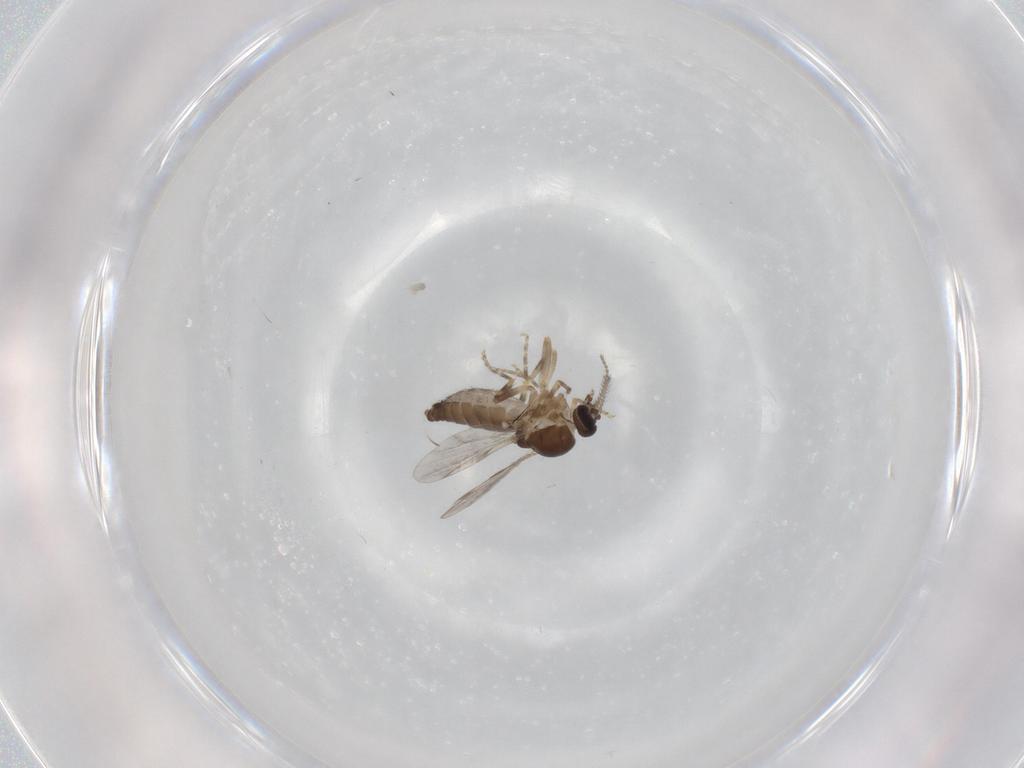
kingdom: Animalia
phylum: Arthropoda
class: Insecta
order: Diptera
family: Ceratopogonidae
